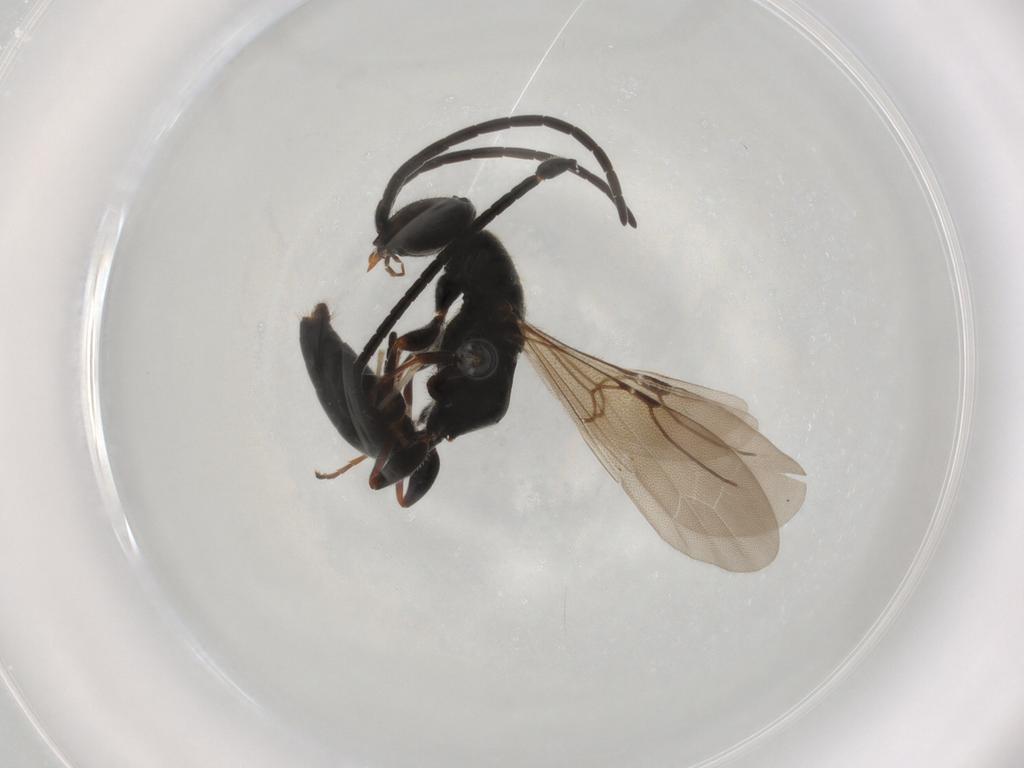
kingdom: Animalia
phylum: Arthropoda
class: Insecta
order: Hymenoptera
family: Bethylidae
